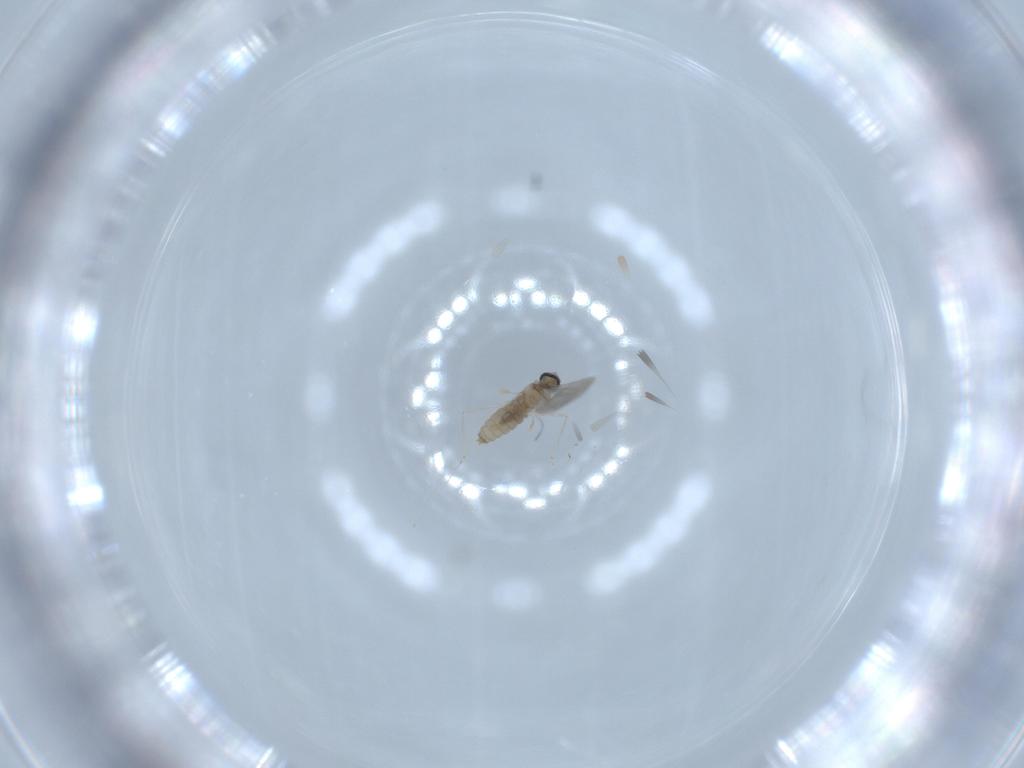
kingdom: Animalia
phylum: Arthropoda
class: Insecta
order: Diptera
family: Cecidomyiidae
